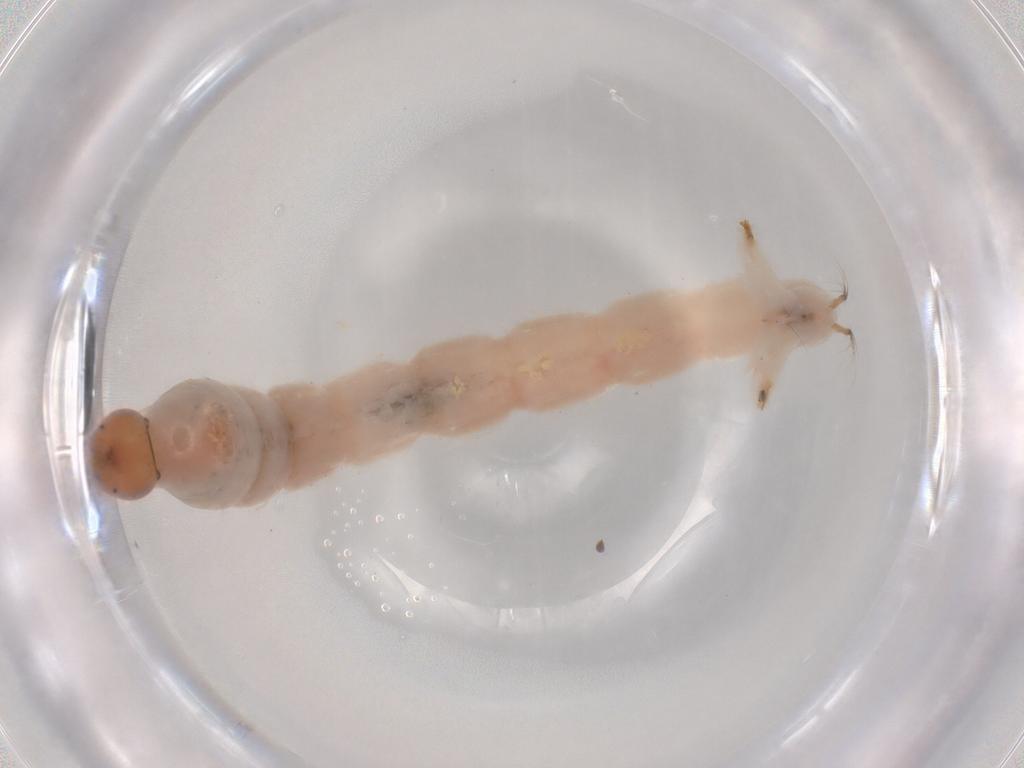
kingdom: Animalia
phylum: Arthropoda
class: Insecta
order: Diptera
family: Chironomidae
